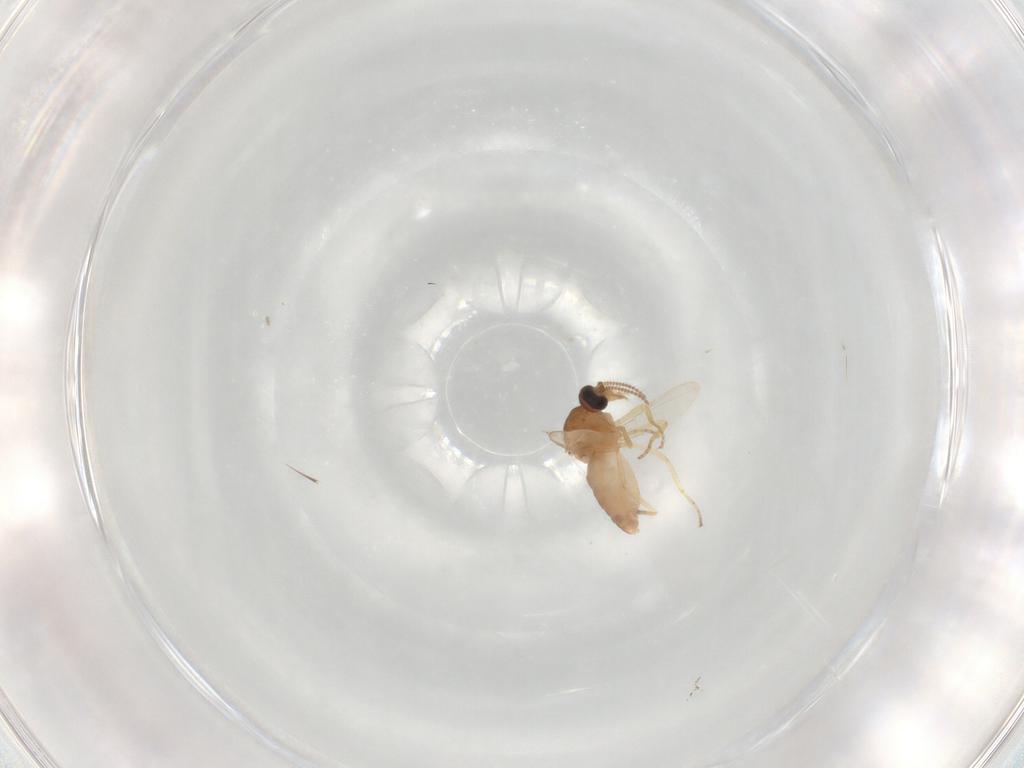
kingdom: Animalia
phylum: Arthropoda
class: Insecta
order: Diptera
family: Ceratopogonidae
